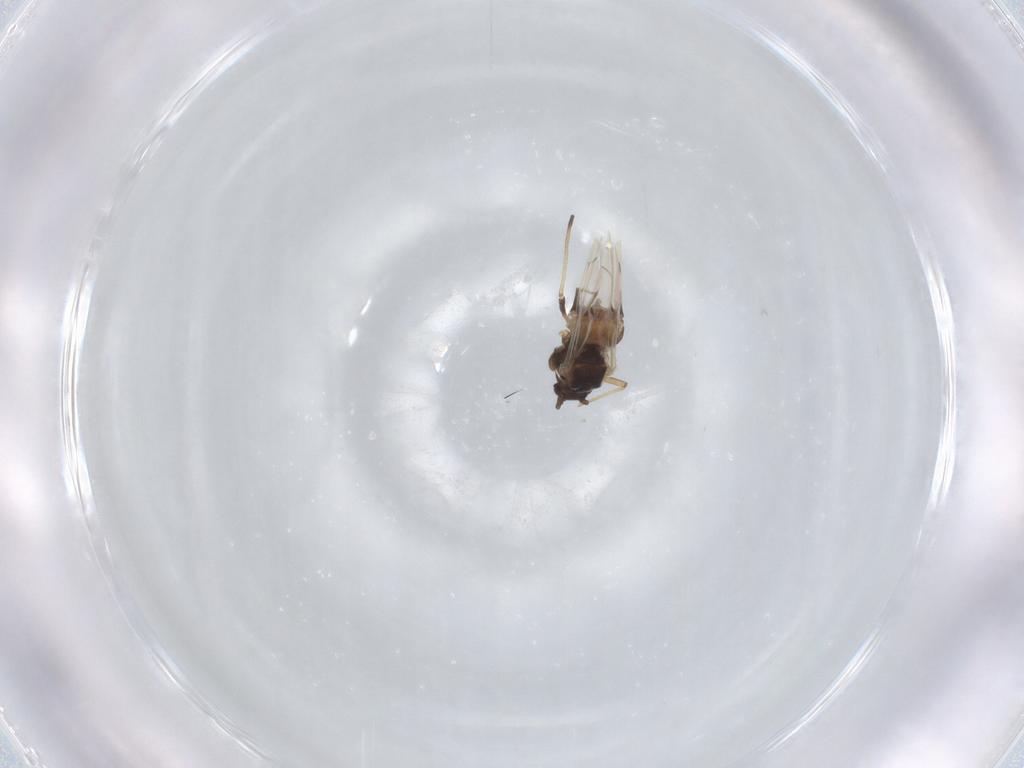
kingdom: Animalia
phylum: Arthropoda
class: Insecta
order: Hemiptera
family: Aphididae
